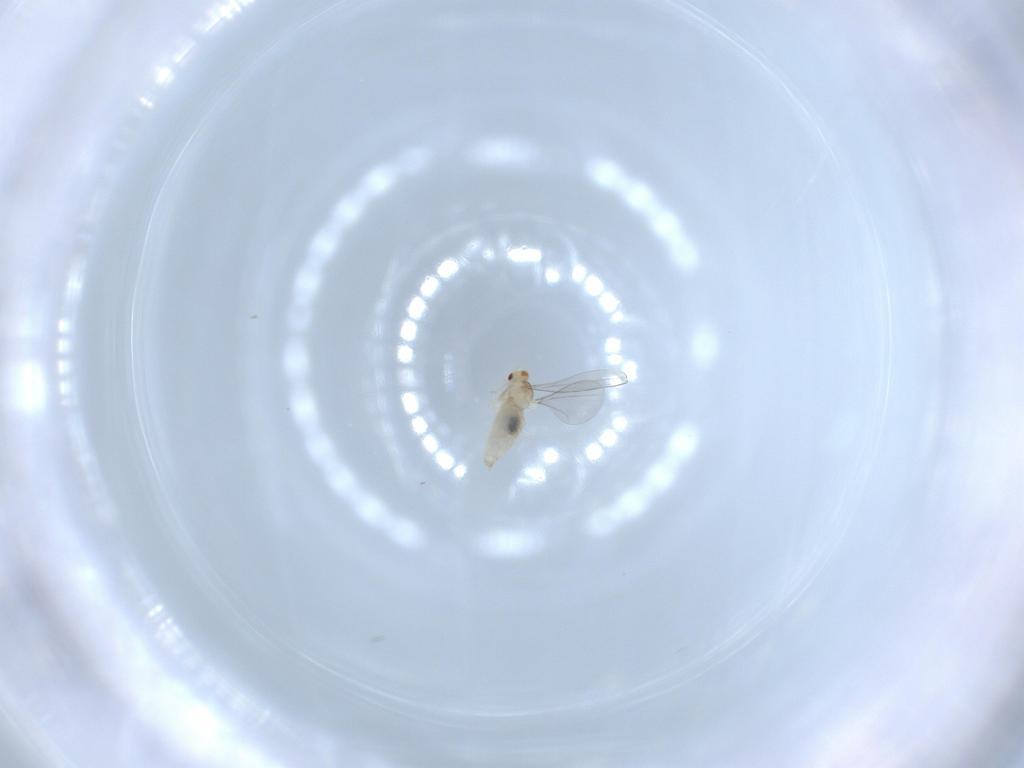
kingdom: Animalia
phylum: Arthropoda
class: Insecta
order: Diptera
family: Cecidomyiidae
